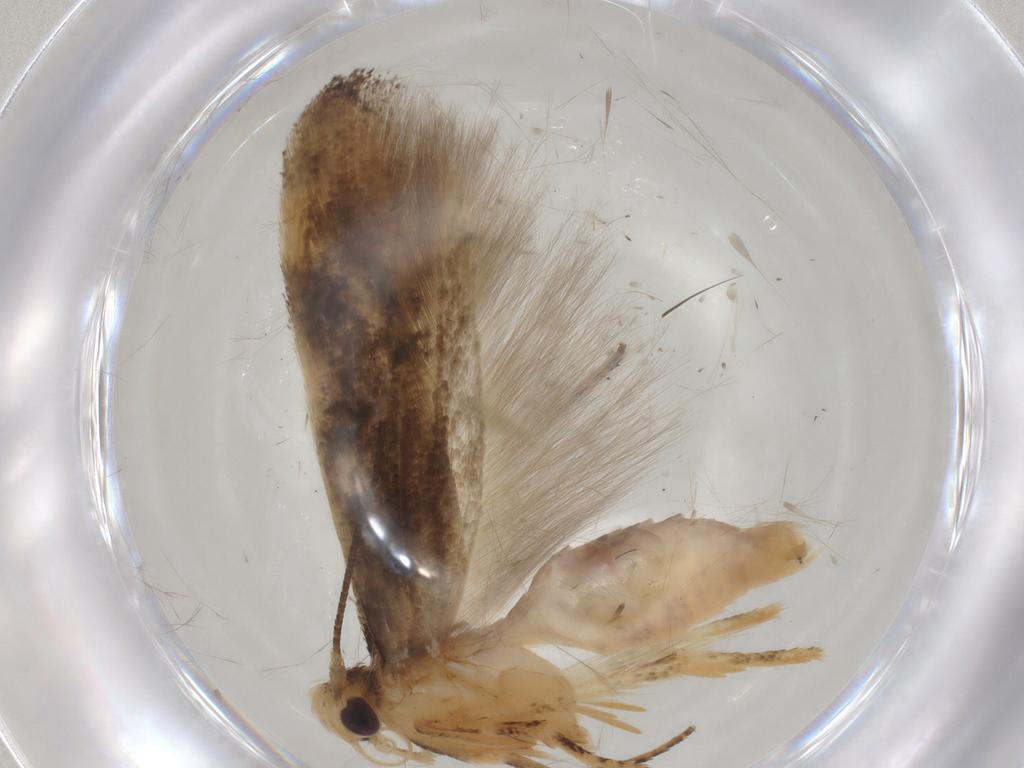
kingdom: Animalia
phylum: Arthropoda
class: Insecta
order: Lepidoptera
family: Momphidae
